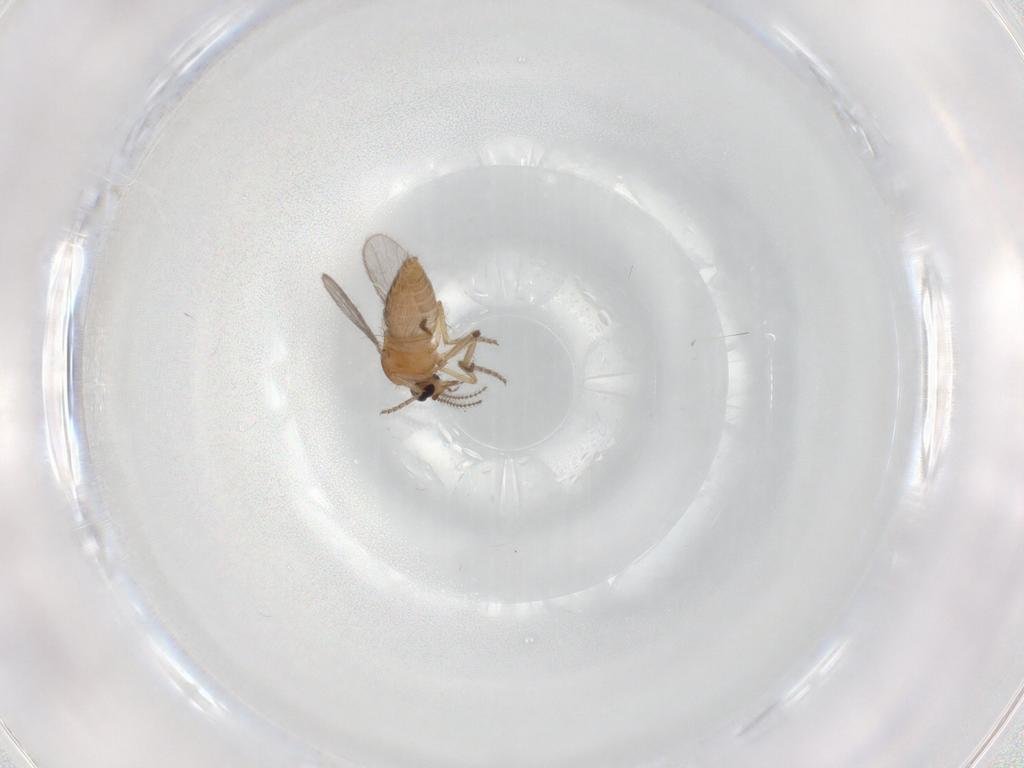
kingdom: Animalia
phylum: Arthropoda
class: Insecta
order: Diptera
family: Ceratopogonidae
